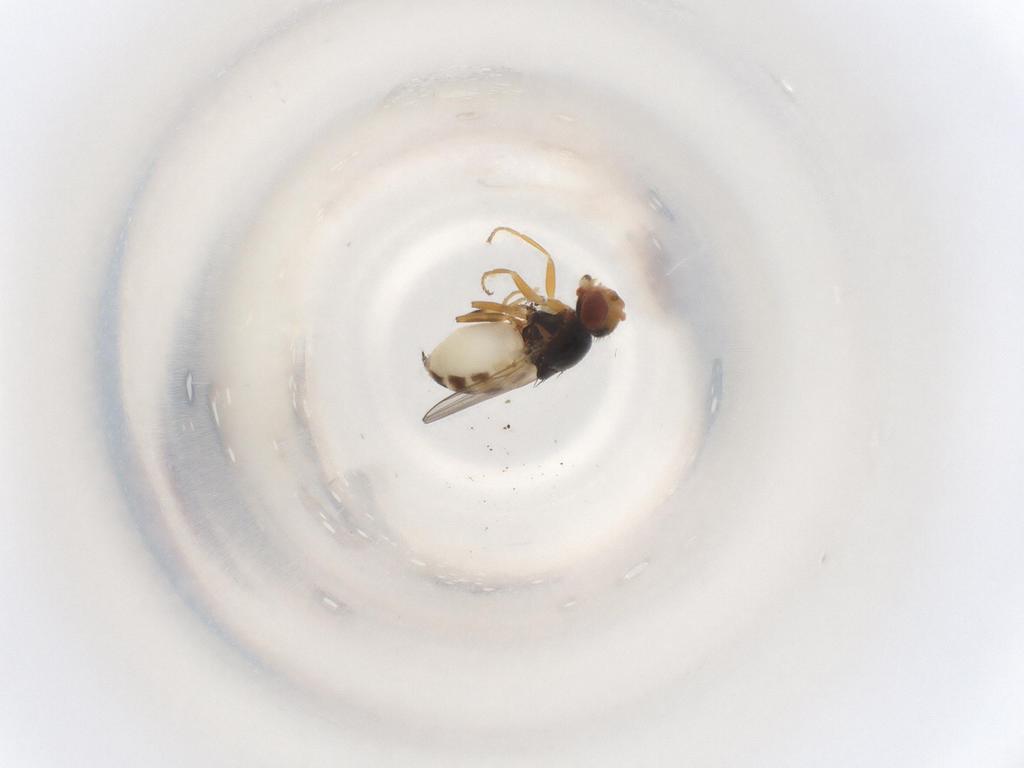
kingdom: Animalia
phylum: Arthropoda
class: Insecta
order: Diptera
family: Chloropidae
